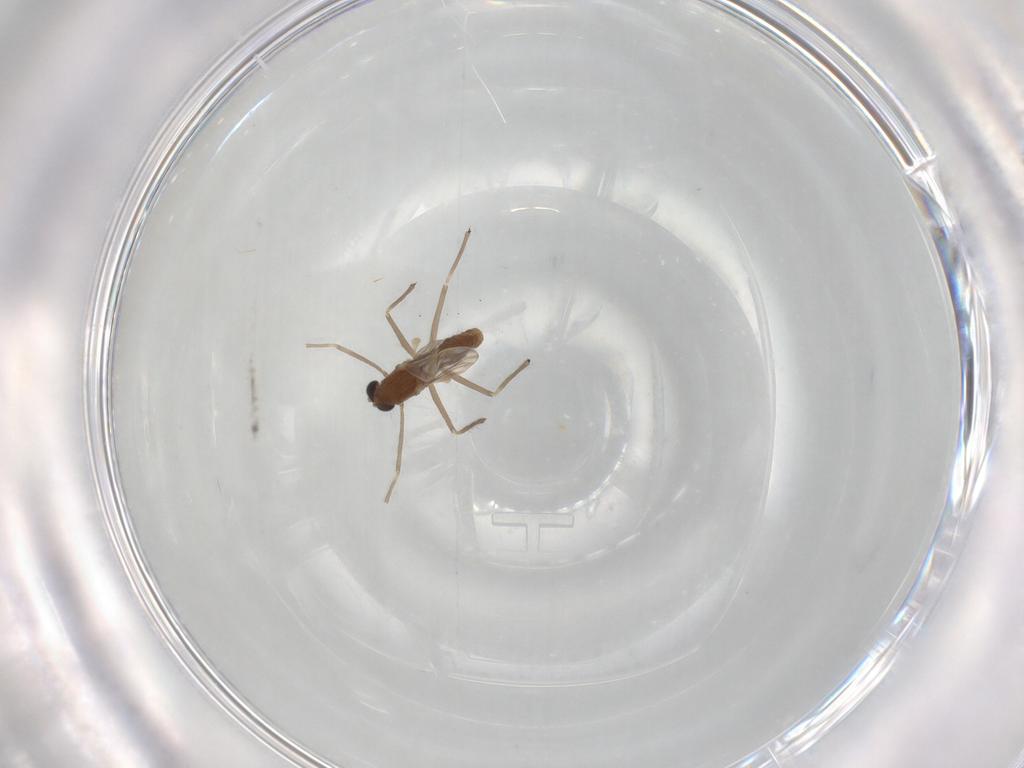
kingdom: Animalia
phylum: Arthropoda
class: Insecta
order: Diptera
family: Chironomidae
